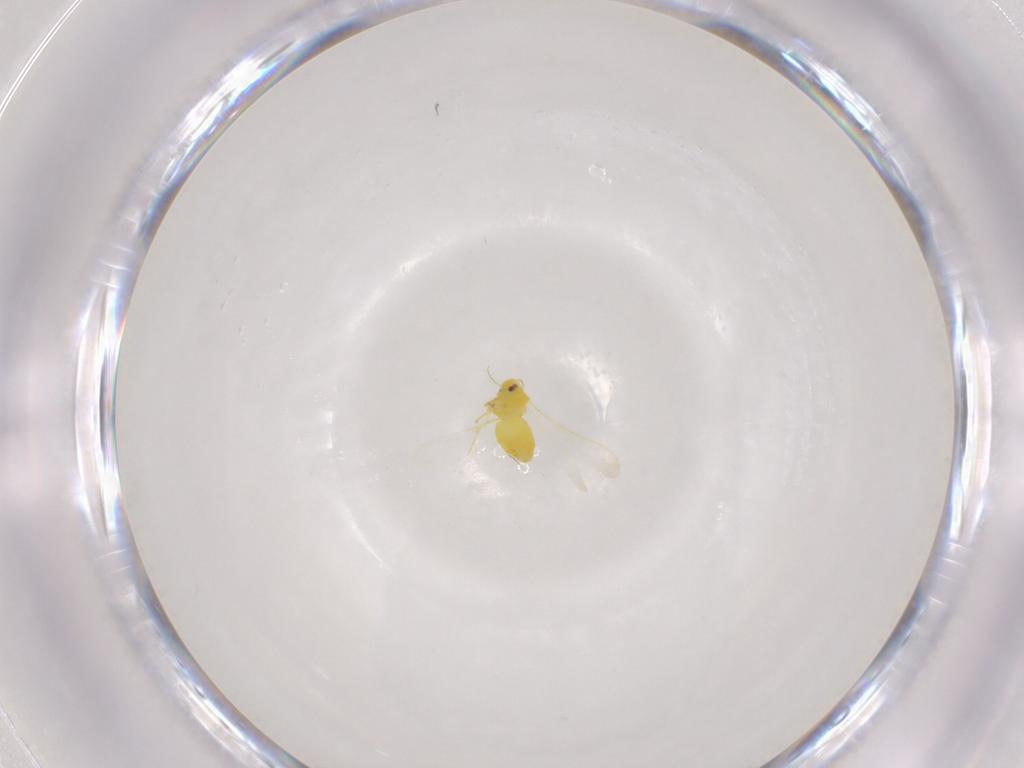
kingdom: Animalia
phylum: Arthropoda
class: Insecta
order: Hemiptera
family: Aleyrodidae
